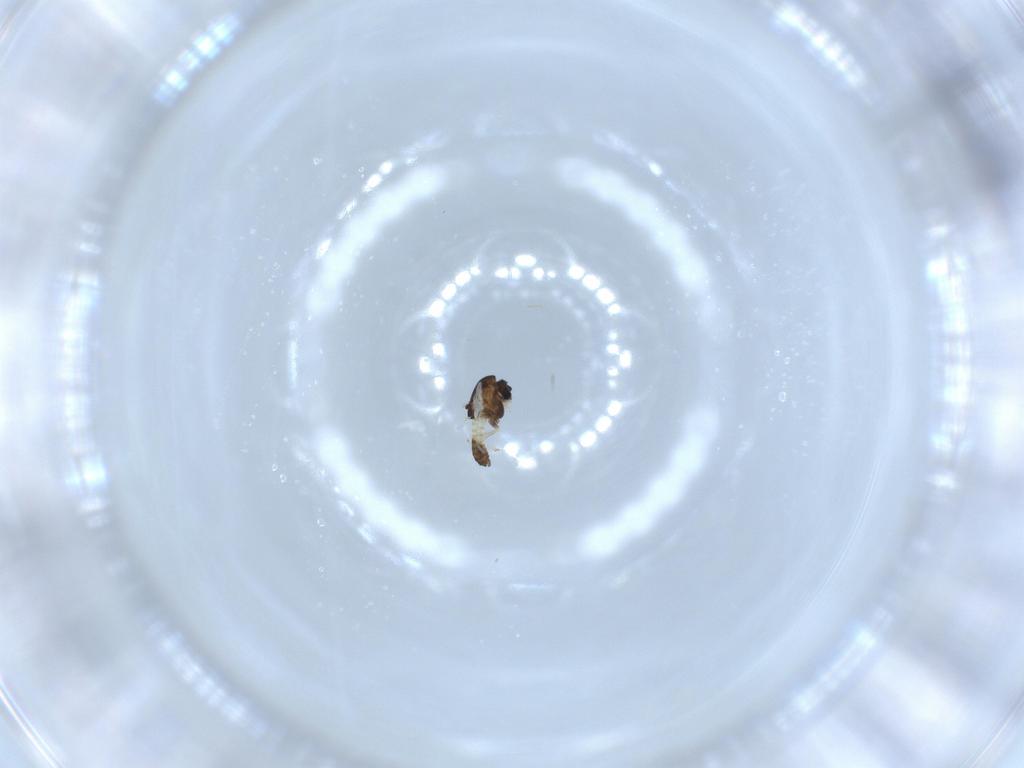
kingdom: Animalia
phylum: Arthropoda
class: Insecta
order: Diptera
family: Chironomidae
